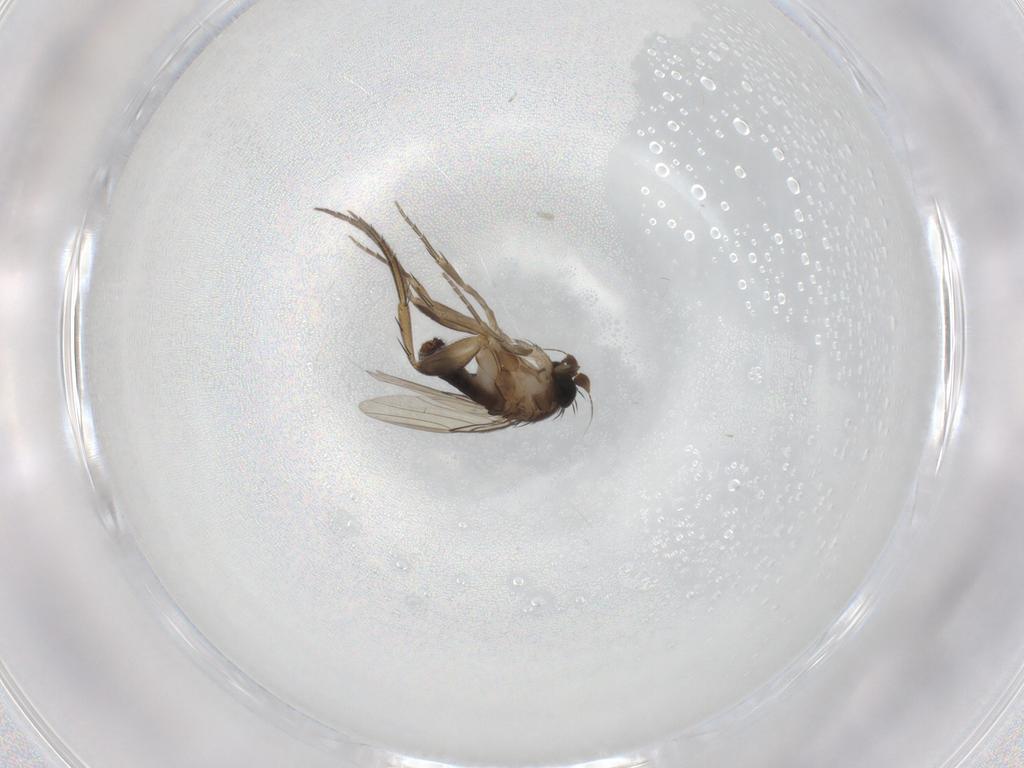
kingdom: Animalia
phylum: Arthropoda
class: Insecta
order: Diptera
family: Phoridae
